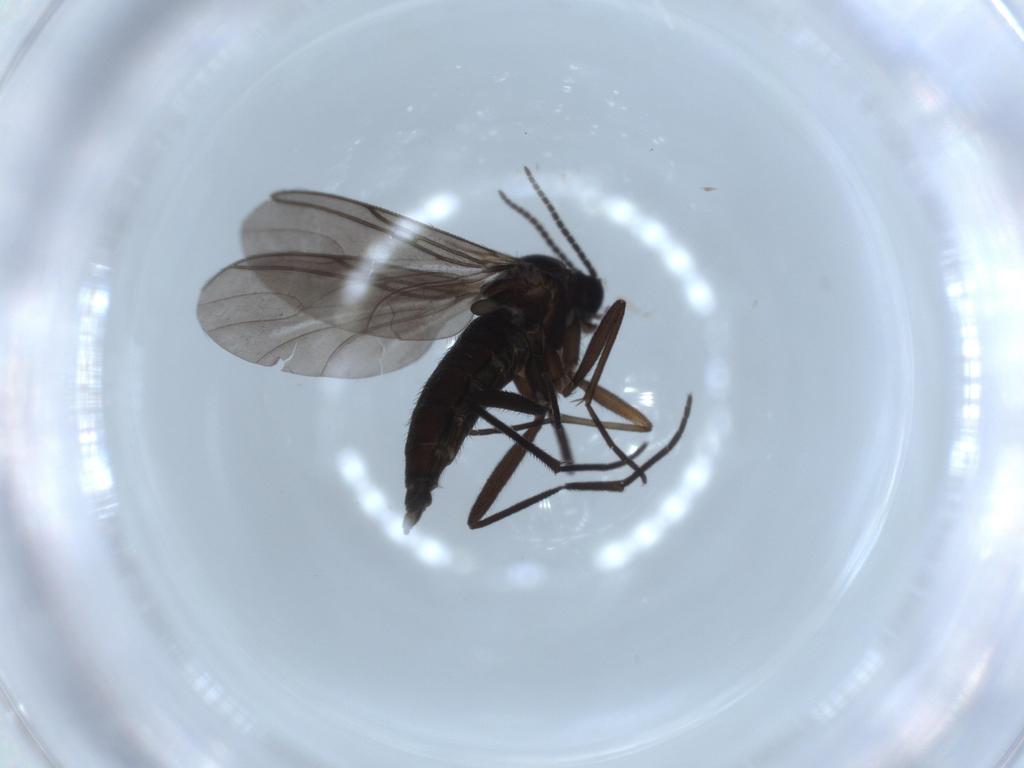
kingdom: Animalia
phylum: Arthropoda
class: Insecta
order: Diptera
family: Sciaridae
